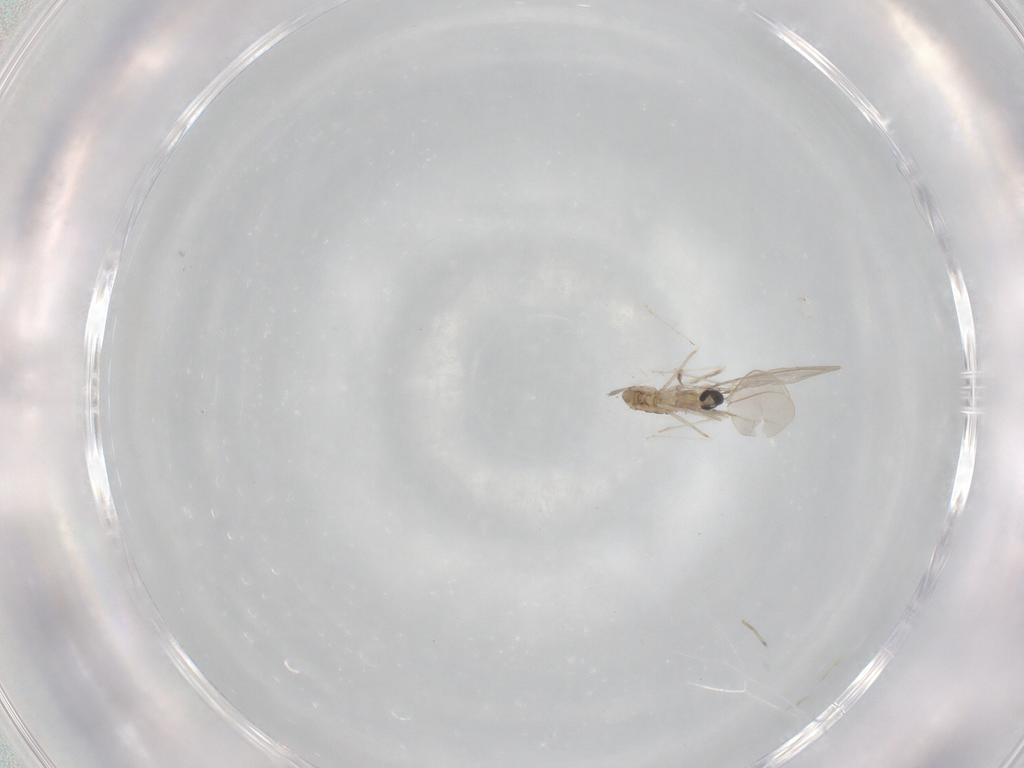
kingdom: Animalia
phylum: Arthropoda
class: Insecta
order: Diptera
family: Cecidomyiidae
